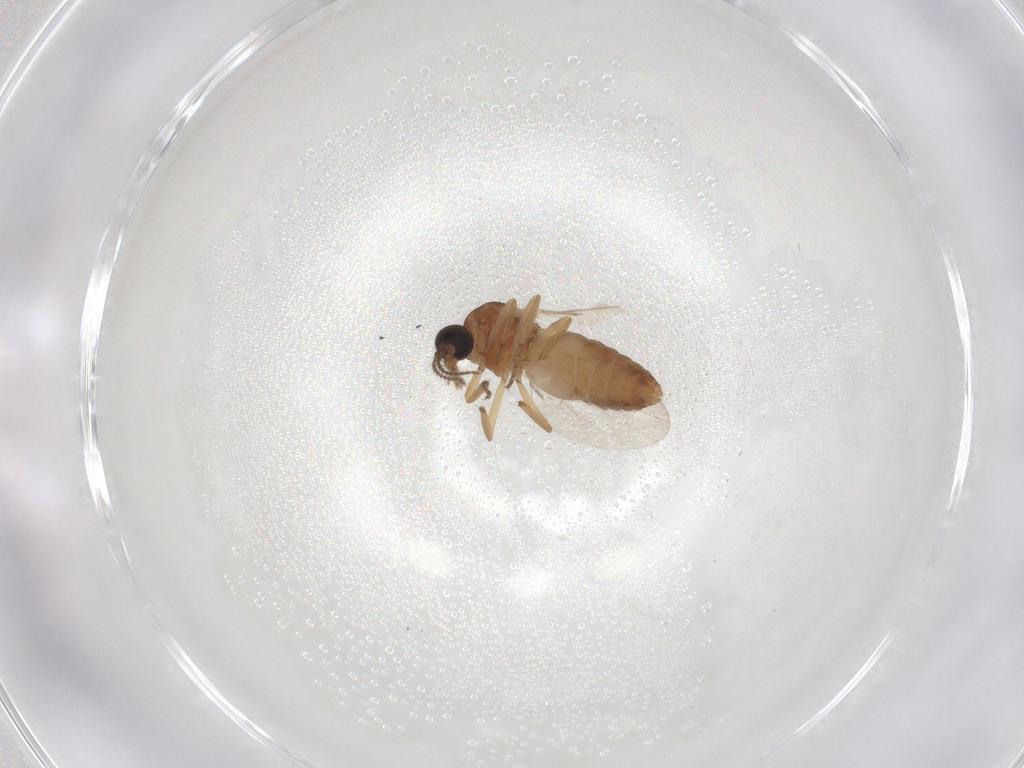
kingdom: Animalia
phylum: Arthropoda
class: Insecta
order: Diptera
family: Ceratopogonidae
